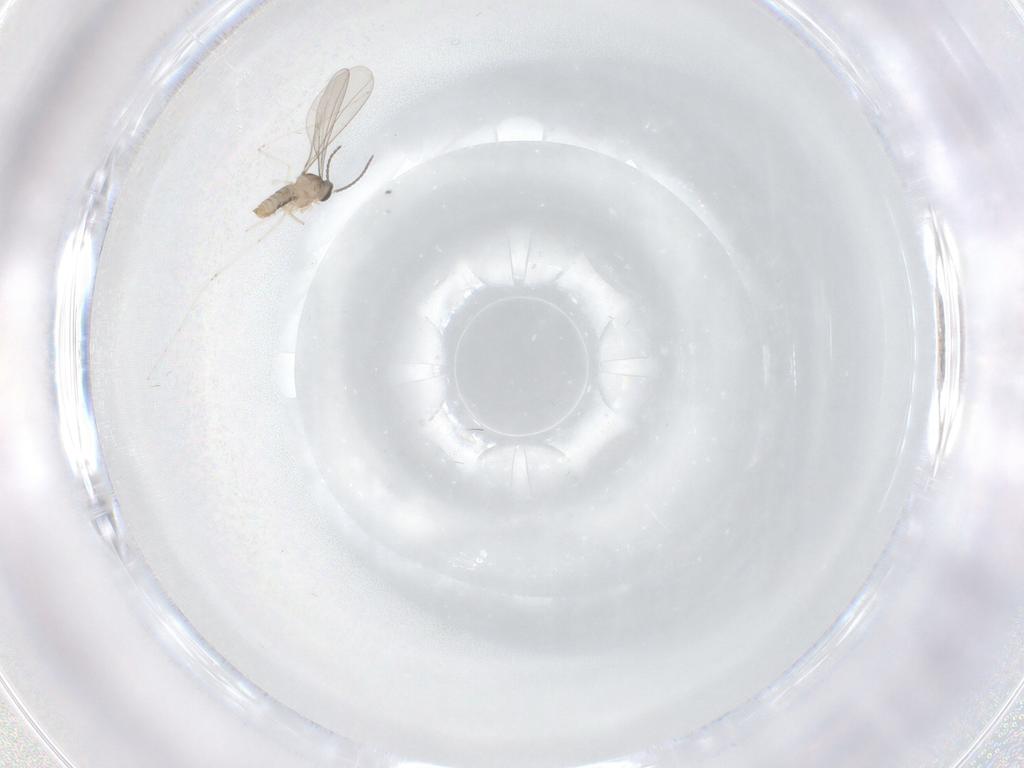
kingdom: Animalia
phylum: Arthropoda
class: Insecta
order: Diptera
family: Cecidomyiidae
